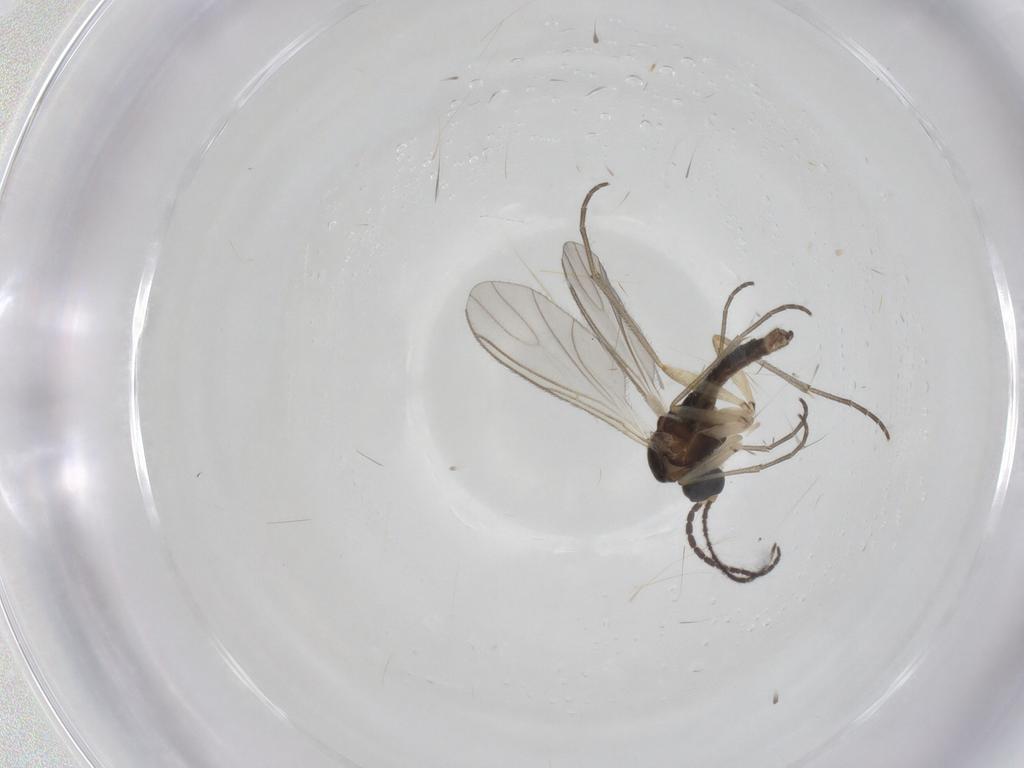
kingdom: Animalia
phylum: Arthropoda
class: Insecta
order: Diptera
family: Sciaridae
